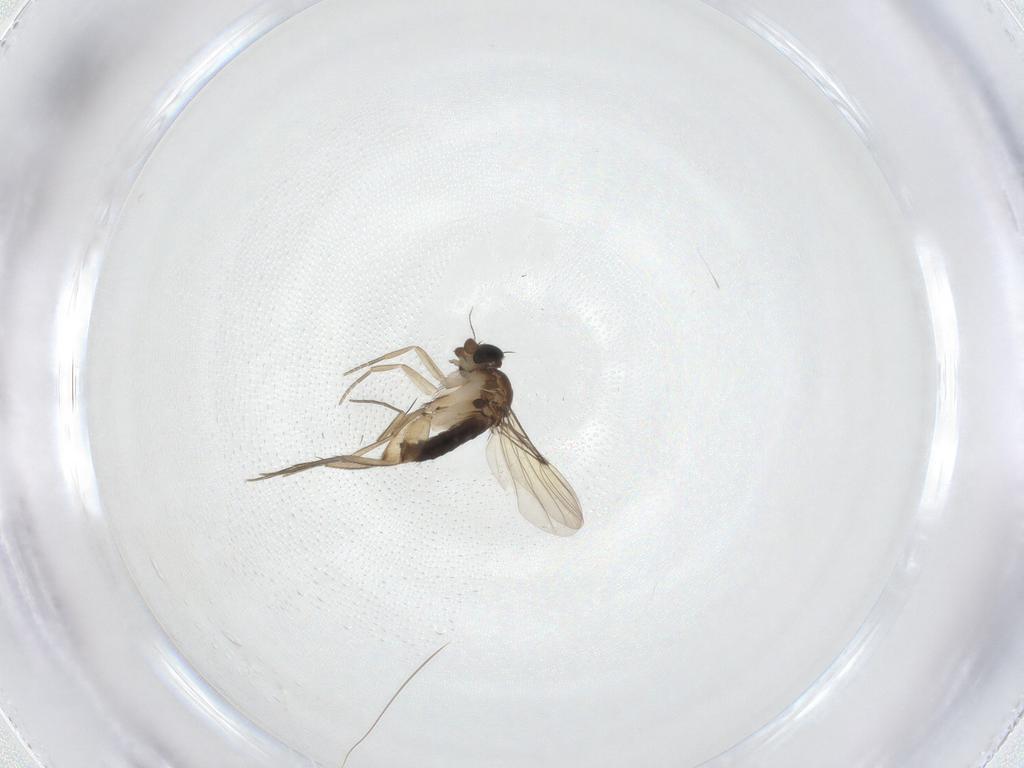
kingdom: Animalia
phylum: Arthropoda
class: Insecta
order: Diptera
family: Phoridae
